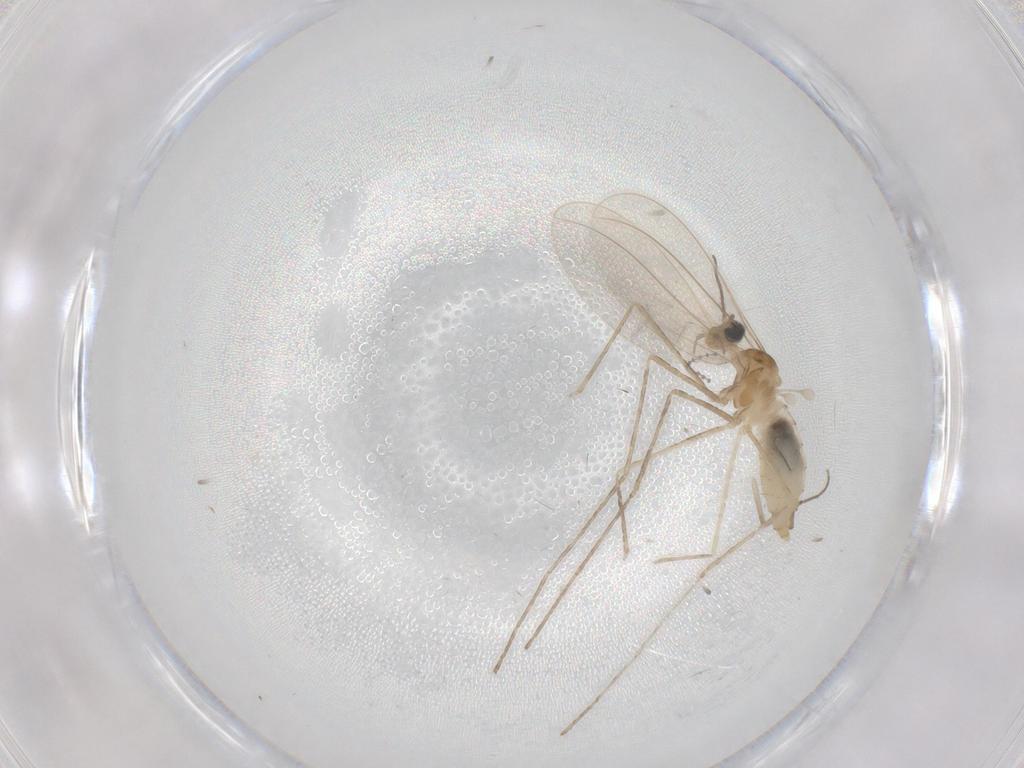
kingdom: Animalia
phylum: Arthropoda
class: Insecta
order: Diptera
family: Cecidomyiidae
